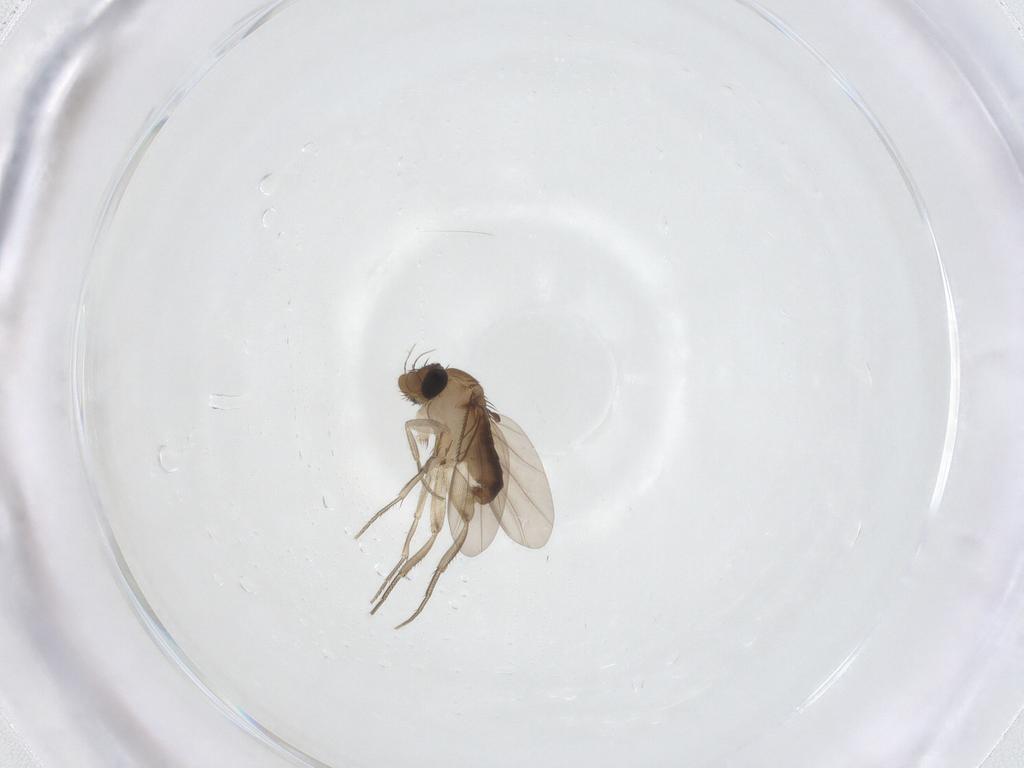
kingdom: Animalia
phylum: Arthropoda
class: Insecta
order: Diptera
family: Phoridae
